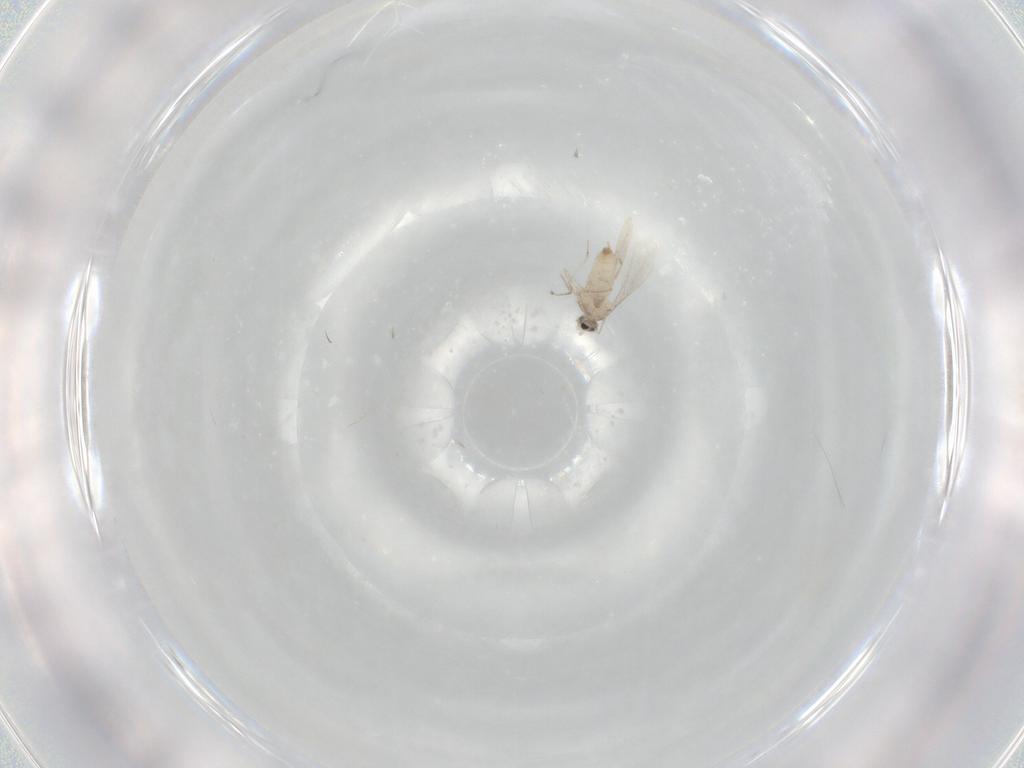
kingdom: Animalia
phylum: Arthropoda
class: Insecta
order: Diptera
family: Cecidomyiidae
